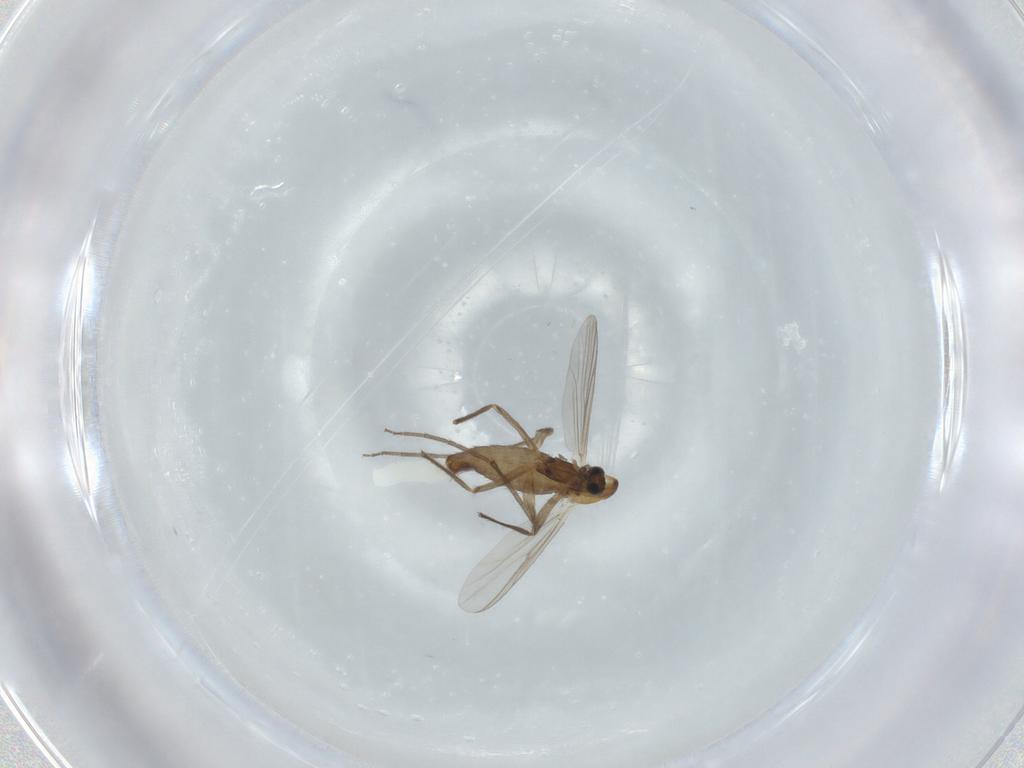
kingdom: Animalia
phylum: Arthropoda
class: Insecta
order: Diptera
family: Chironomidae
